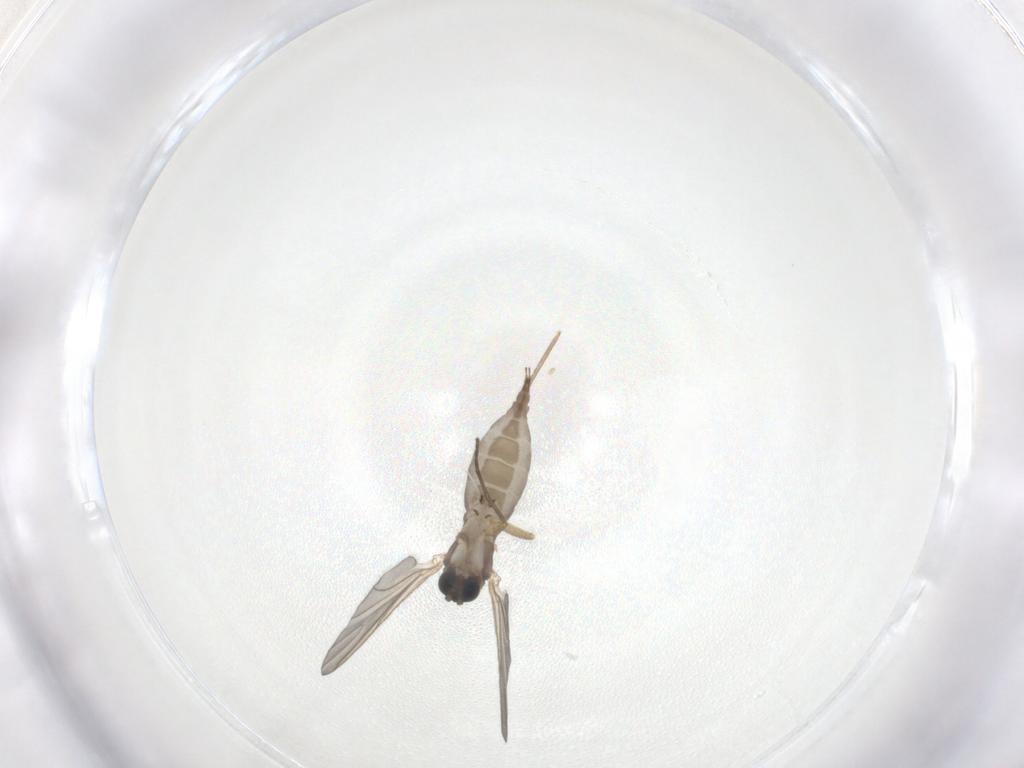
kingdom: Animalia
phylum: Arthropoda
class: Insecta
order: Diptera
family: Sciaridae
